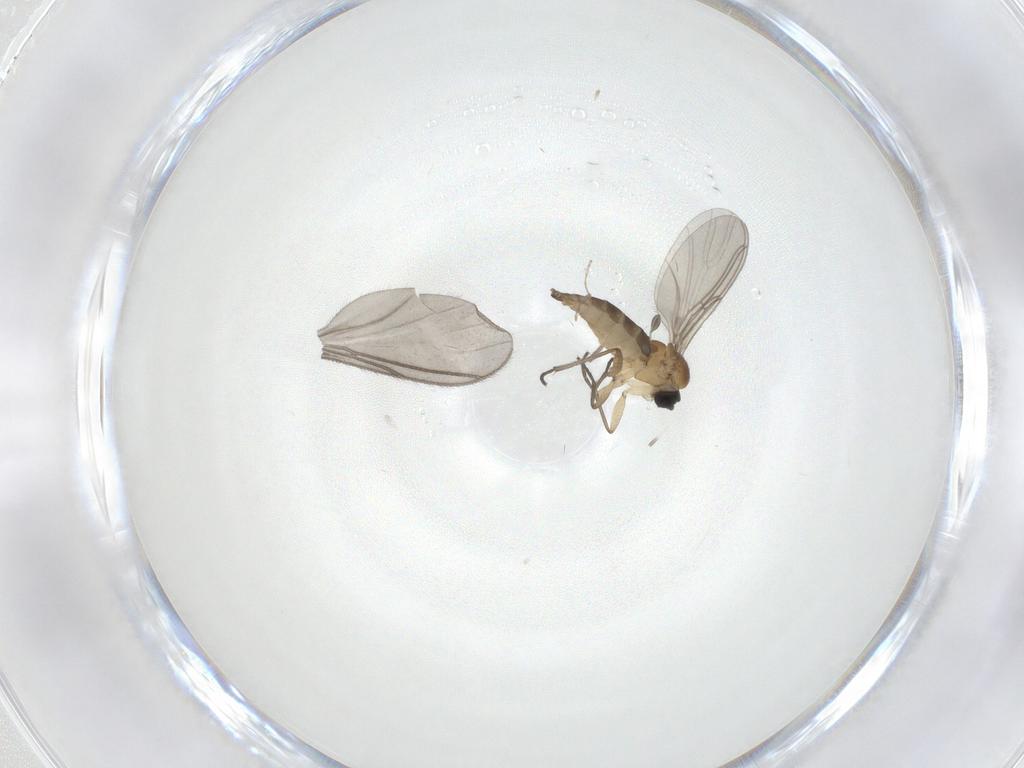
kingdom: Animalia
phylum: Arthropoda
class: Insecta
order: Diptera
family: Sciaridae
